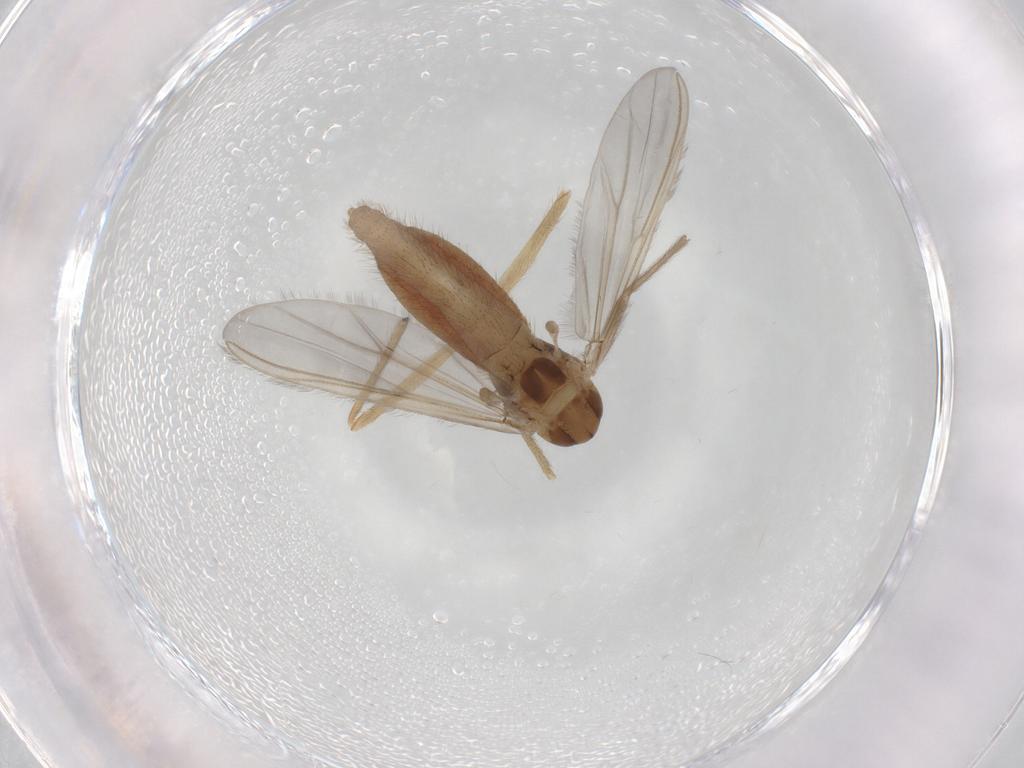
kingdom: Animalia
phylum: Arthropoda
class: Insecta
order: Diptera
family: Chironomidae
